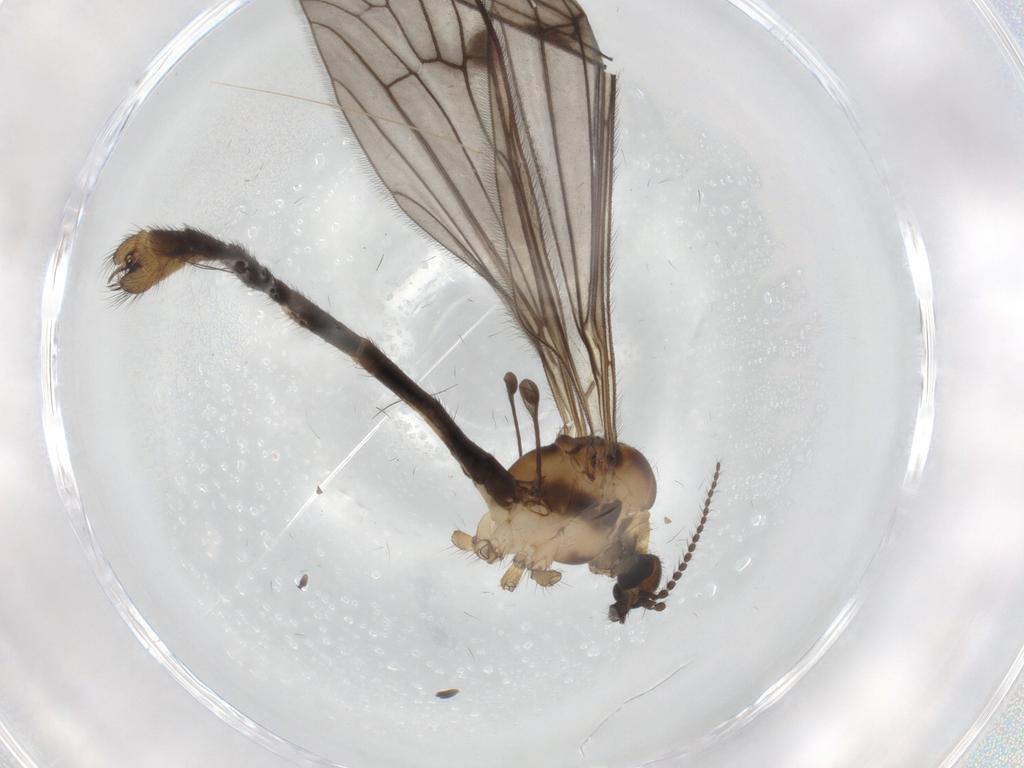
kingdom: Animalia
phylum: Arthropoda
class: Insecta
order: Diptera
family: Limoniidae
